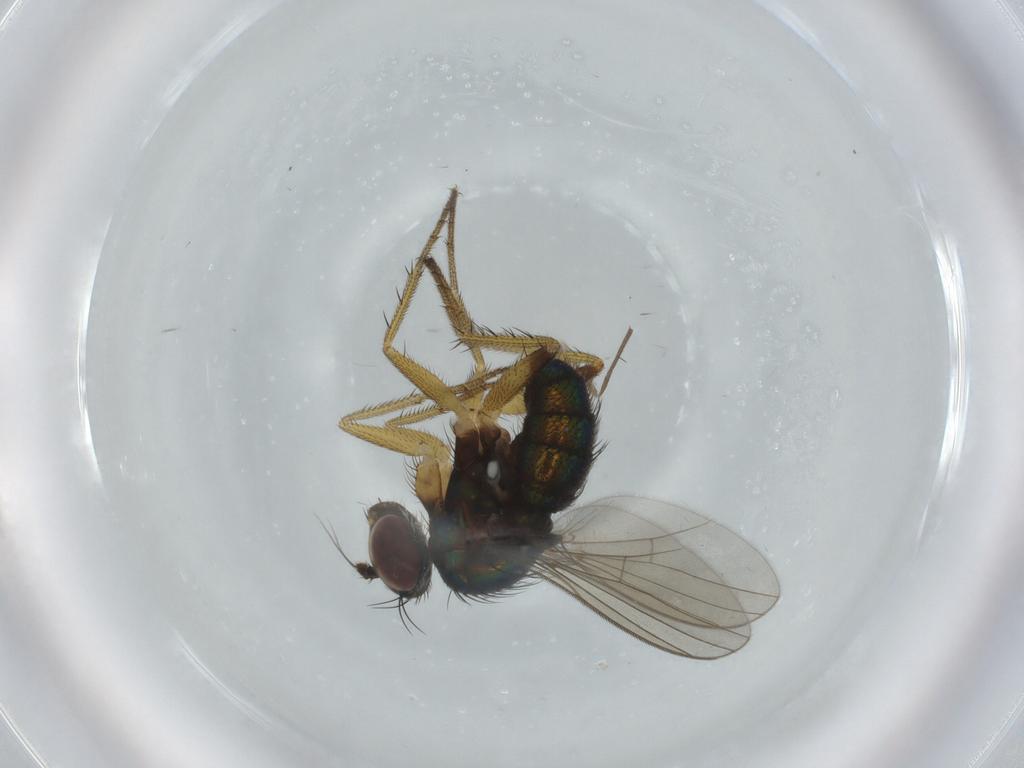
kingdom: Animalia
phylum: Arthropoda
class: Insecta
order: Diptera
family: Dolichopodidae
